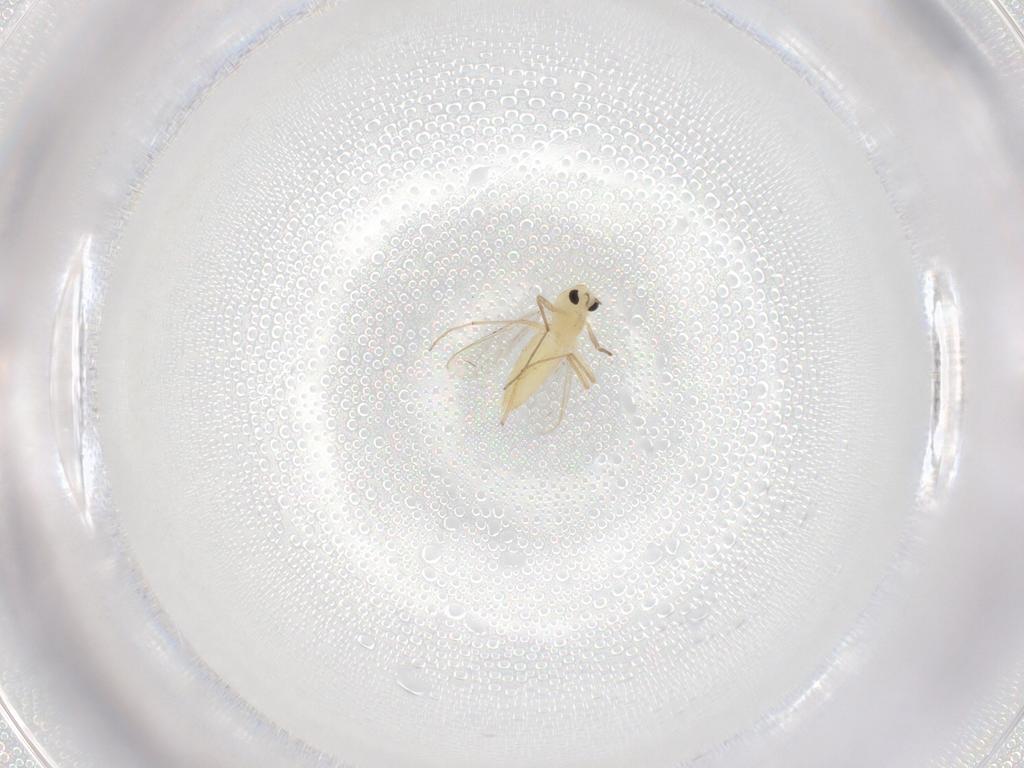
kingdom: Animalia
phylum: Arthropoda
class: Insecta
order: Diptera
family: Chironomidae
